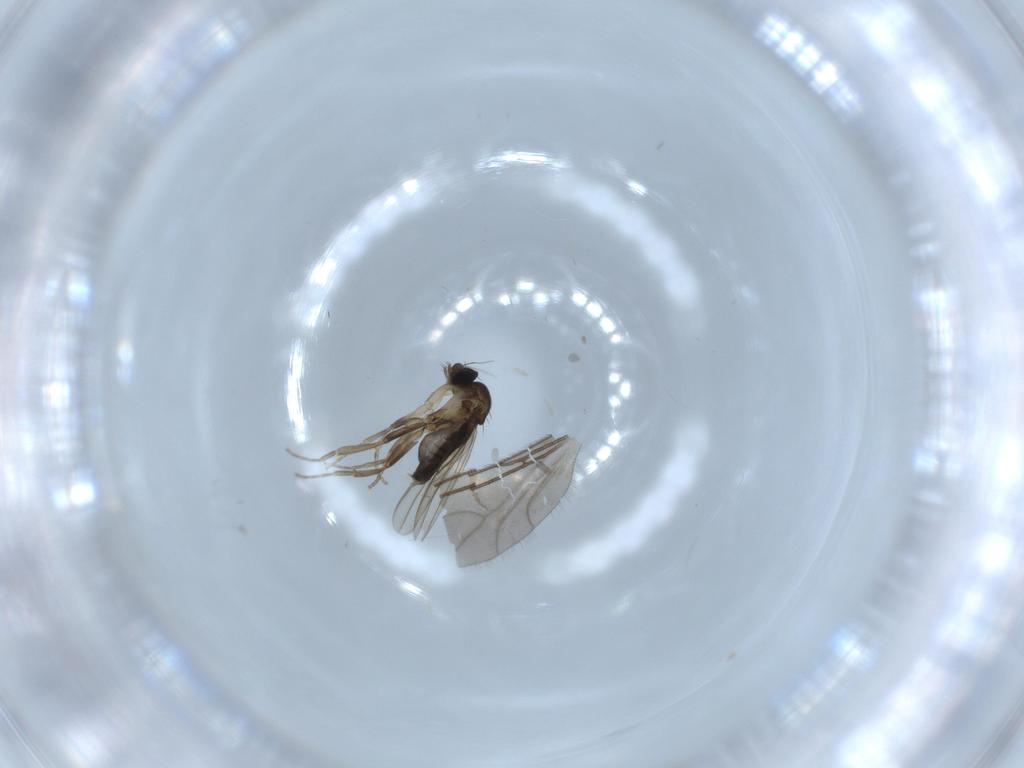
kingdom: Animalia
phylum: Arthropoda
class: Insecta
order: Diptera
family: Phoridae
